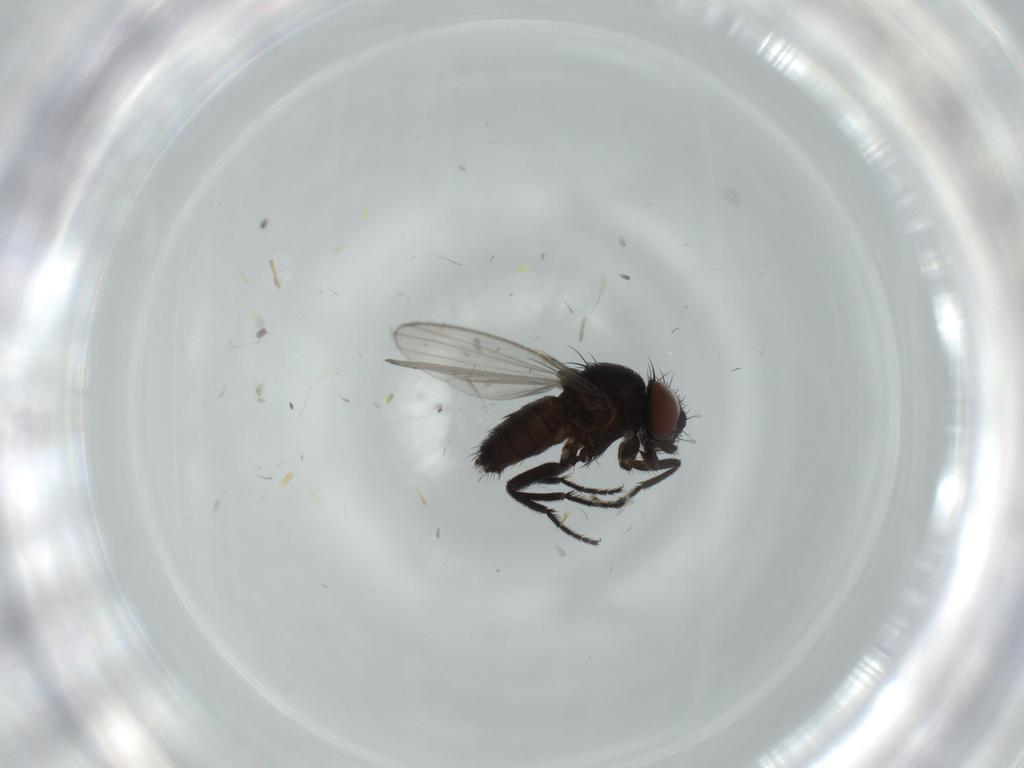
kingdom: Animalia
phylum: Arthropoda
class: Insecta
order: Diptera
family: Milichiidae
